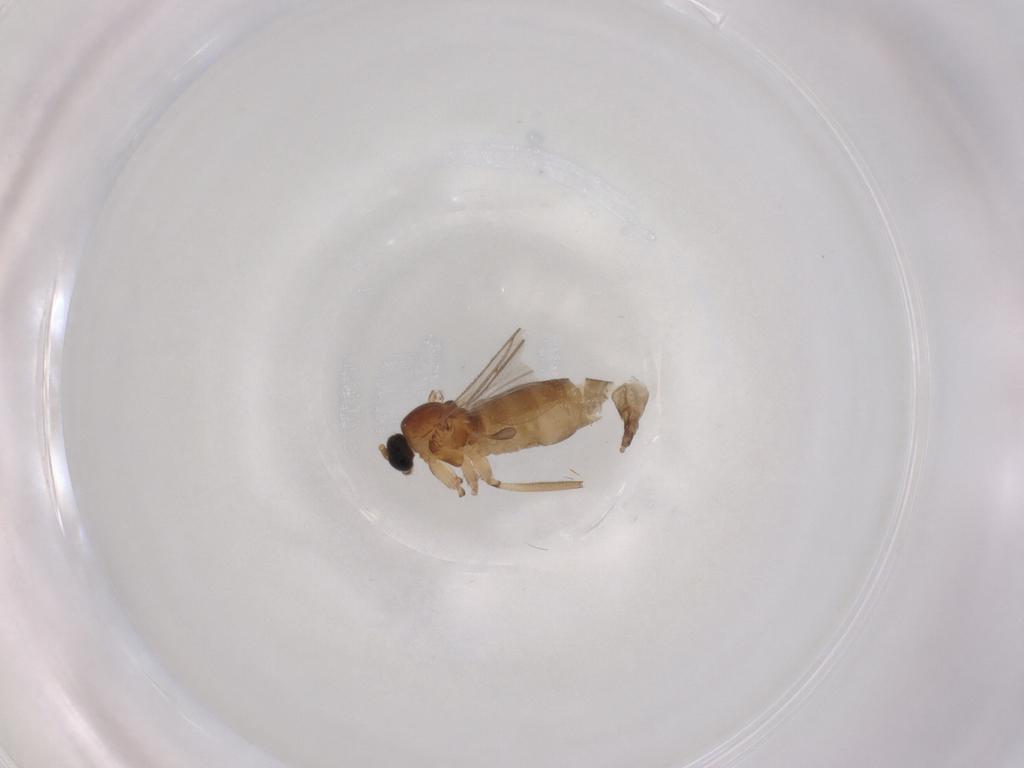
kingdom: Animalia
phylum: Arthropoda
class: Insecta
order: Diptera
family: Sciaridae
